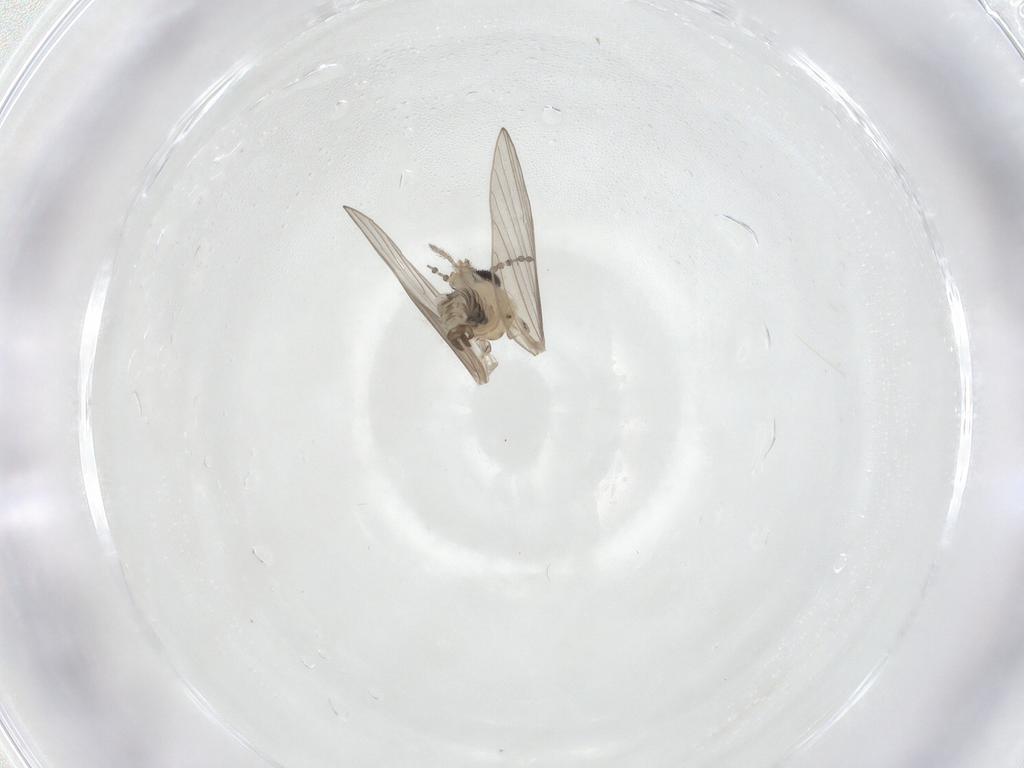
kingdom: Animalia
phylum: Arthropoda
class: Insecta
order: Diptera
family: Psychodidae
